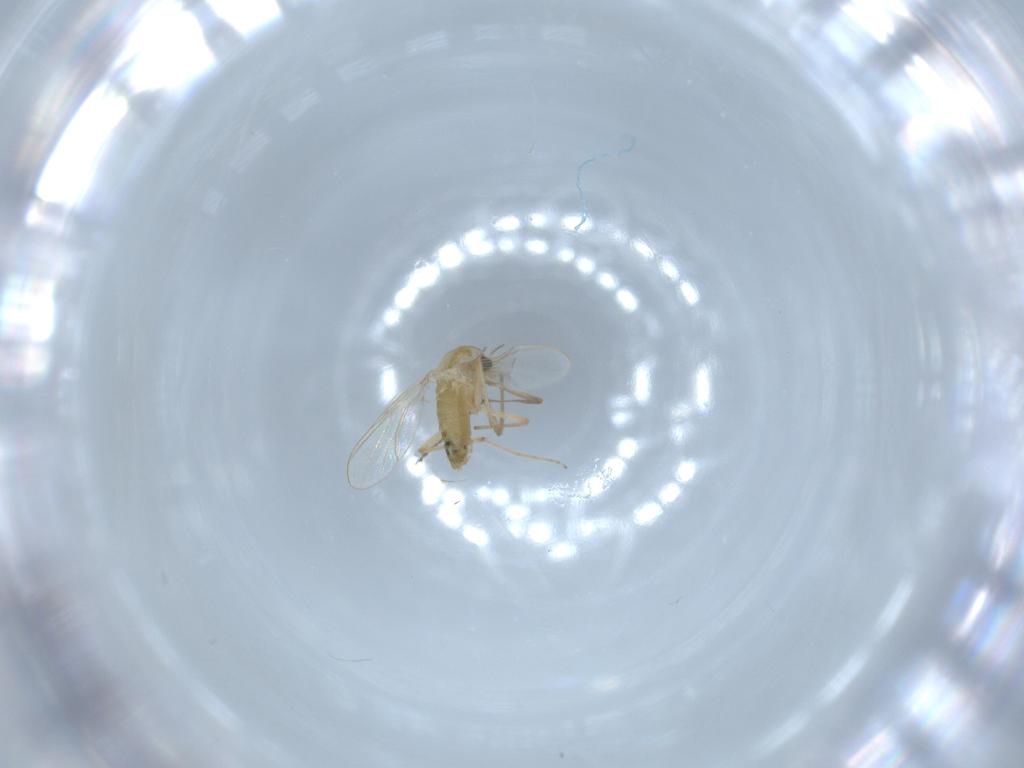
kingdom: Animalia
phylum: Arthropoda
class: Insecta
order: Diptera
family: Chironomidae
